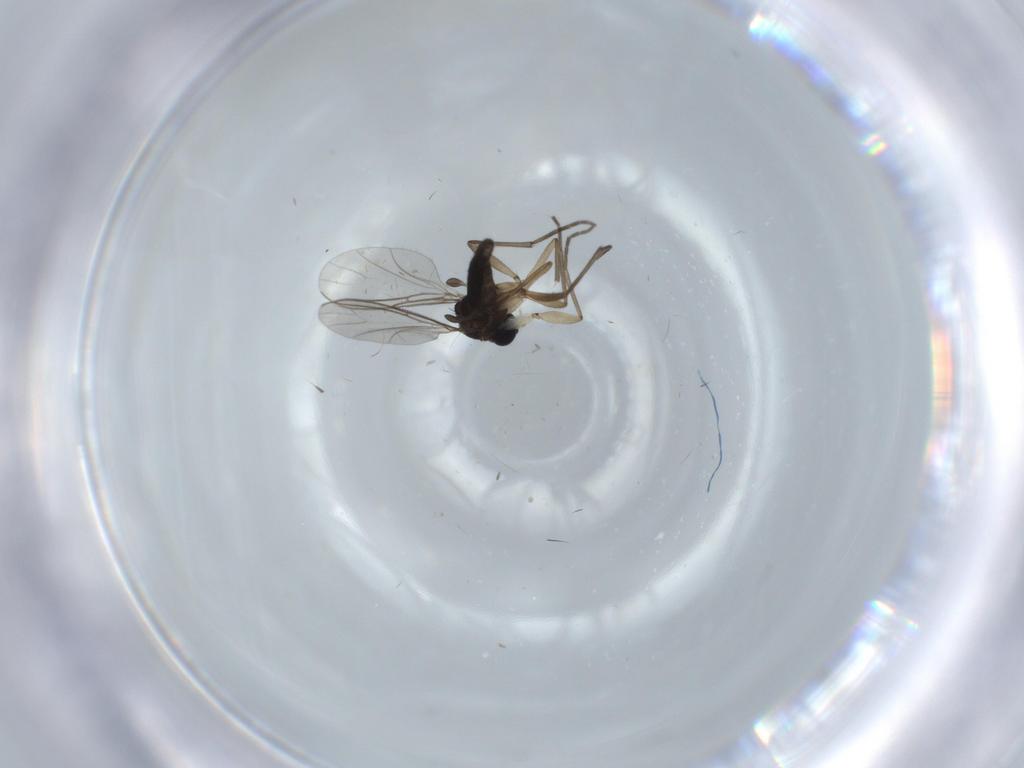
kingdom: Animalia
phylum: Arthropoda
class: Insecta
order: Diptera
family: Sciaridae
